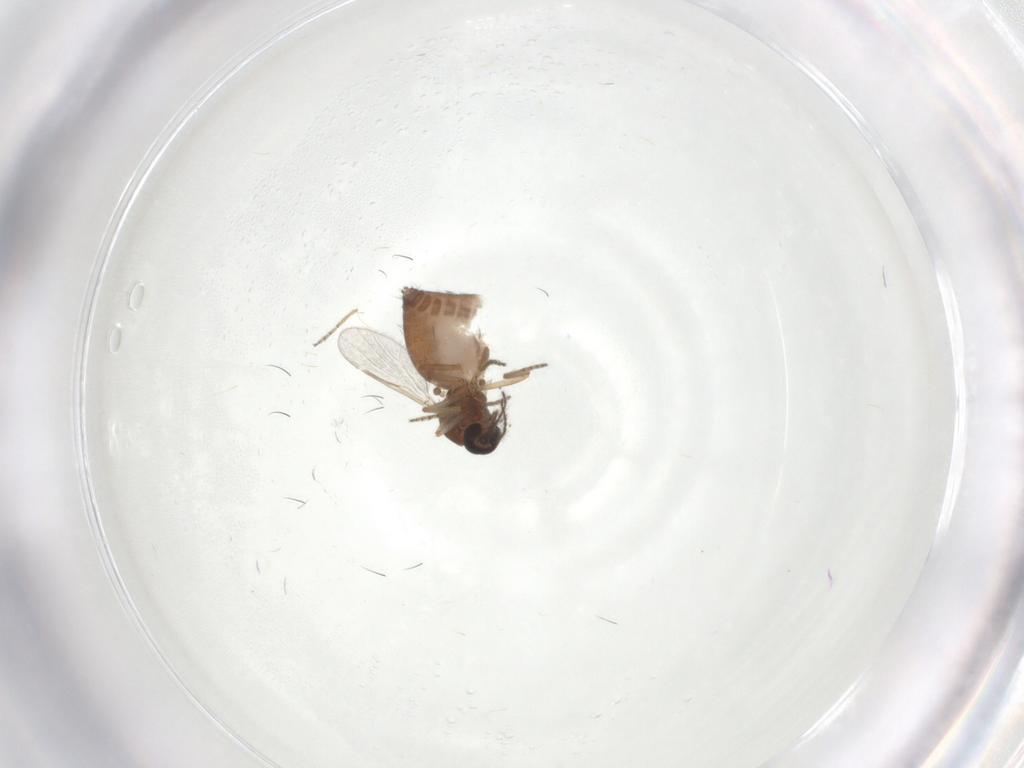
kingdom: Animalia
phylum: Arthropoda
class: Insecta
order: Diptera
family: Ceratopogonidae
